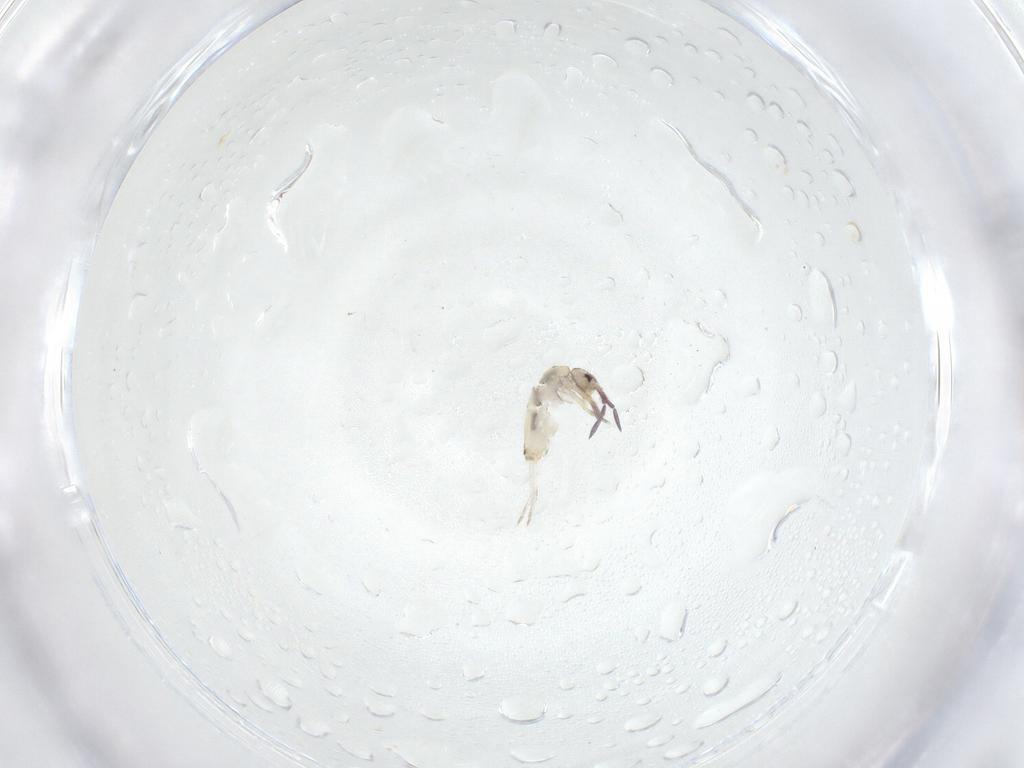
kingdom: Animalia
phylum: Arthropoda
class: Collembola
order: Entomobryomorpha
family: Entomobryidae
